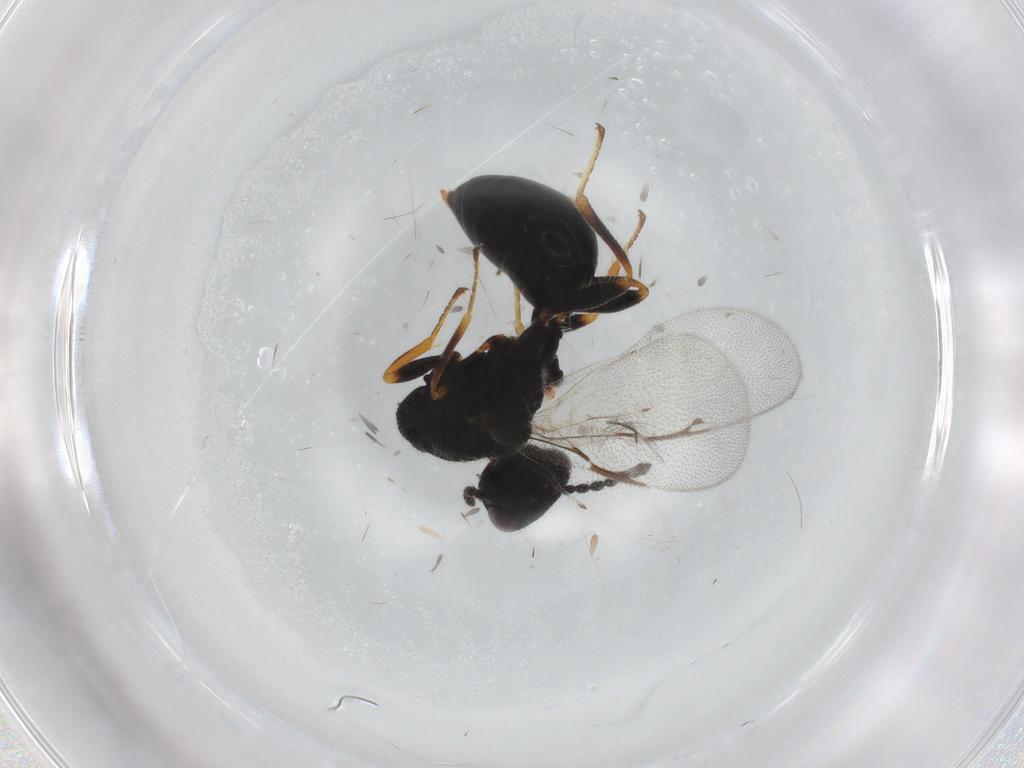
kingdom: Animalia
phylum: Arthropoda
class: Insecta
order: Hymenoptera
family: Eurytomidae
